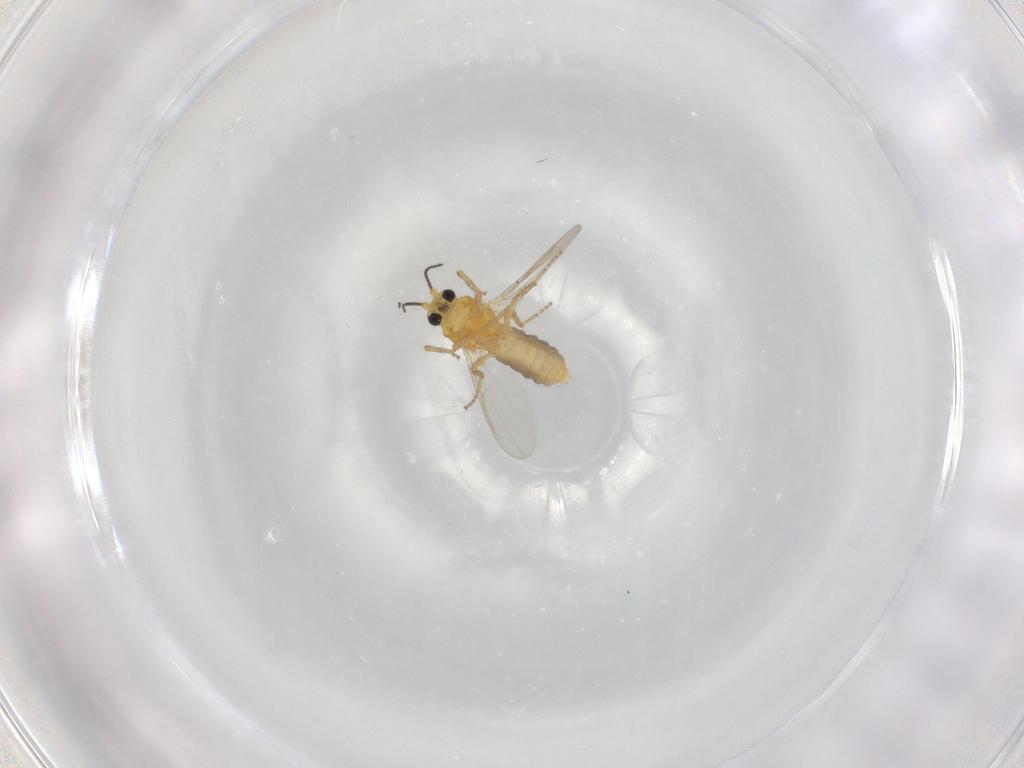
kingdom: Animalia
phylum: Arthropoda
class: Insecta
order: Diptera
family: Ceratopogonidae
